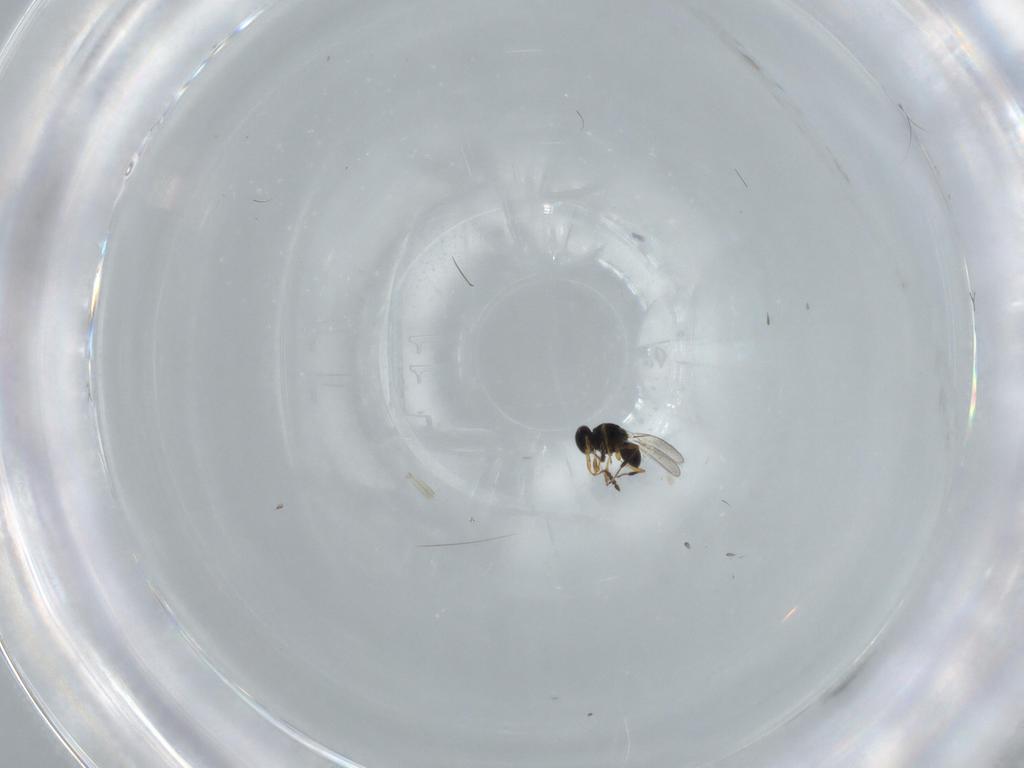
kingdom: Animalia
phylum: Arthropoda
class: Insecta
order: Hymenoptera
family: Platygastridae
